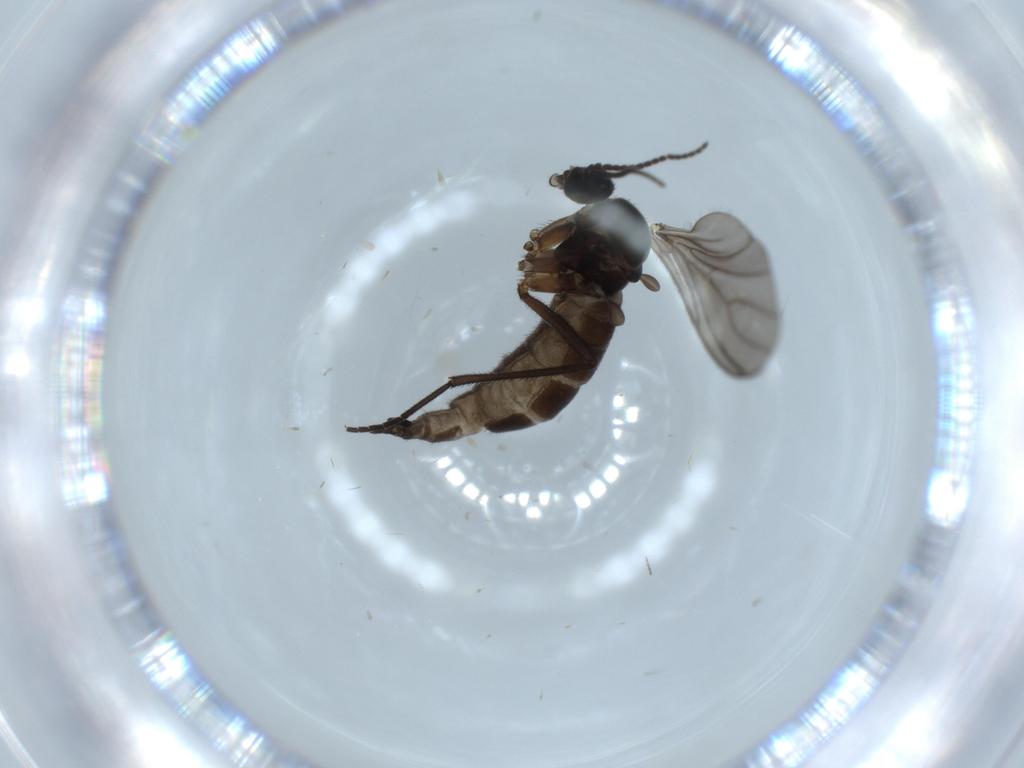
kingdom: Animalia
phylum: Arthropoda
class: Insecta
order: Diptera
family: Sciaridae
